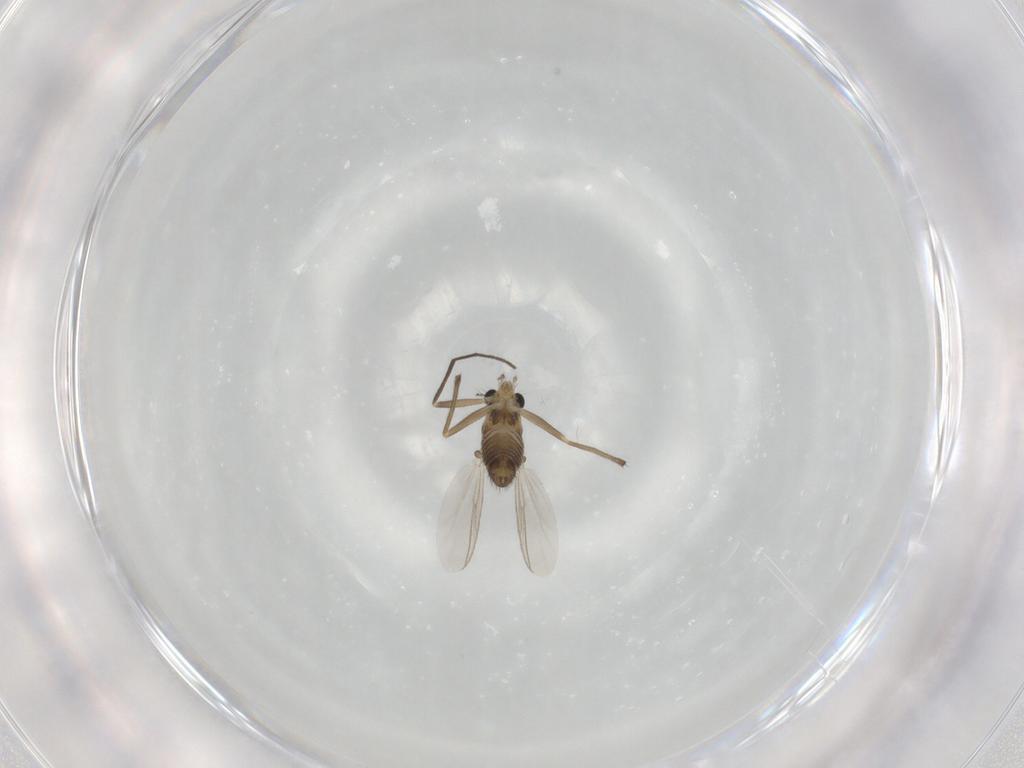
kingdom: Animalia
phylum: Arthropoda
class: Insecta
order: Diptera
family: Chironomidae
